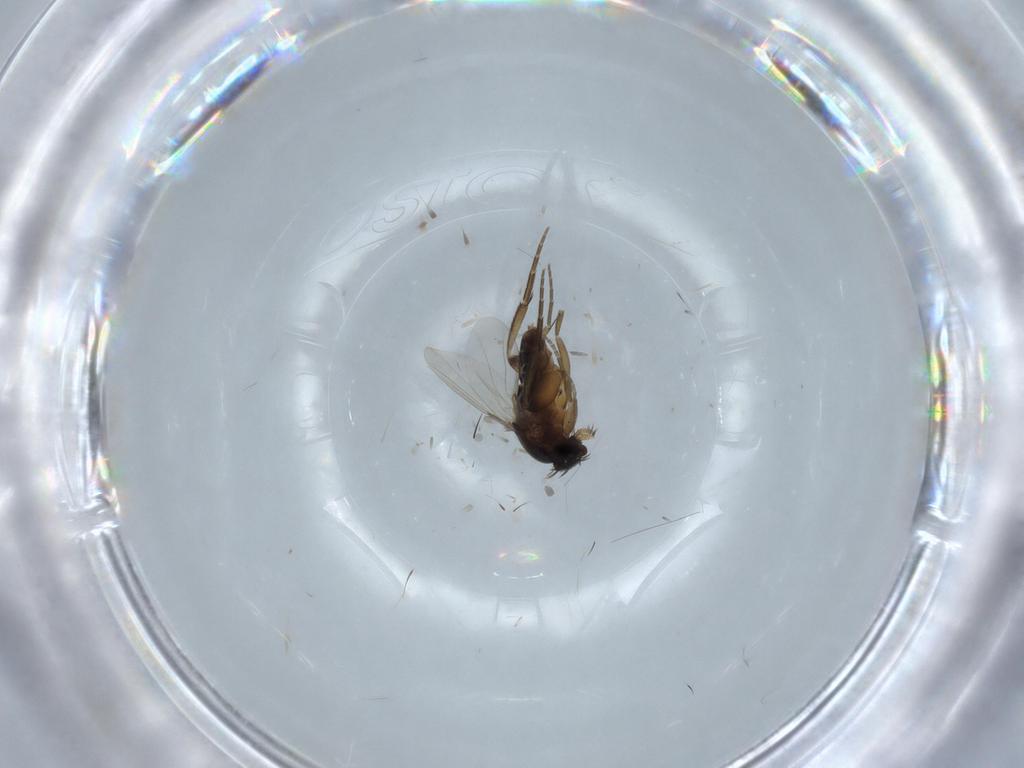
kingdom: Animalia
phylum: Arthropoda
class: Insecta
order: Diptera
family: Phoridae
